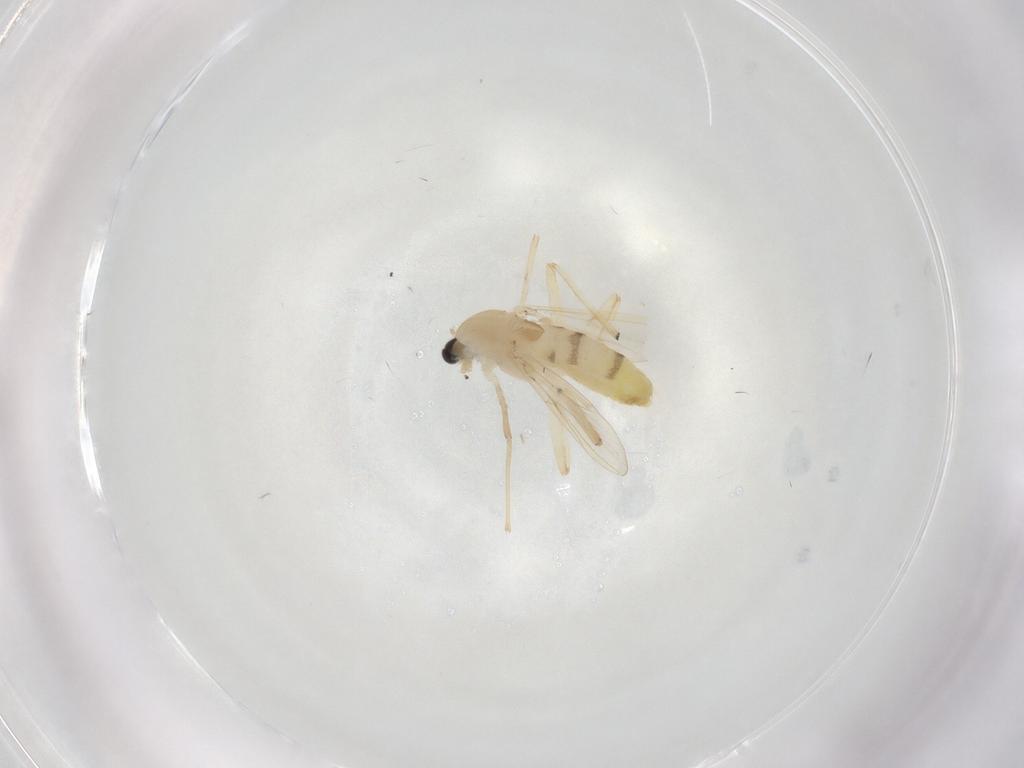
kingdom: Animalia
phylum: Arthropoda
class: Insecta
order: Diptera
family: Chironomidae
